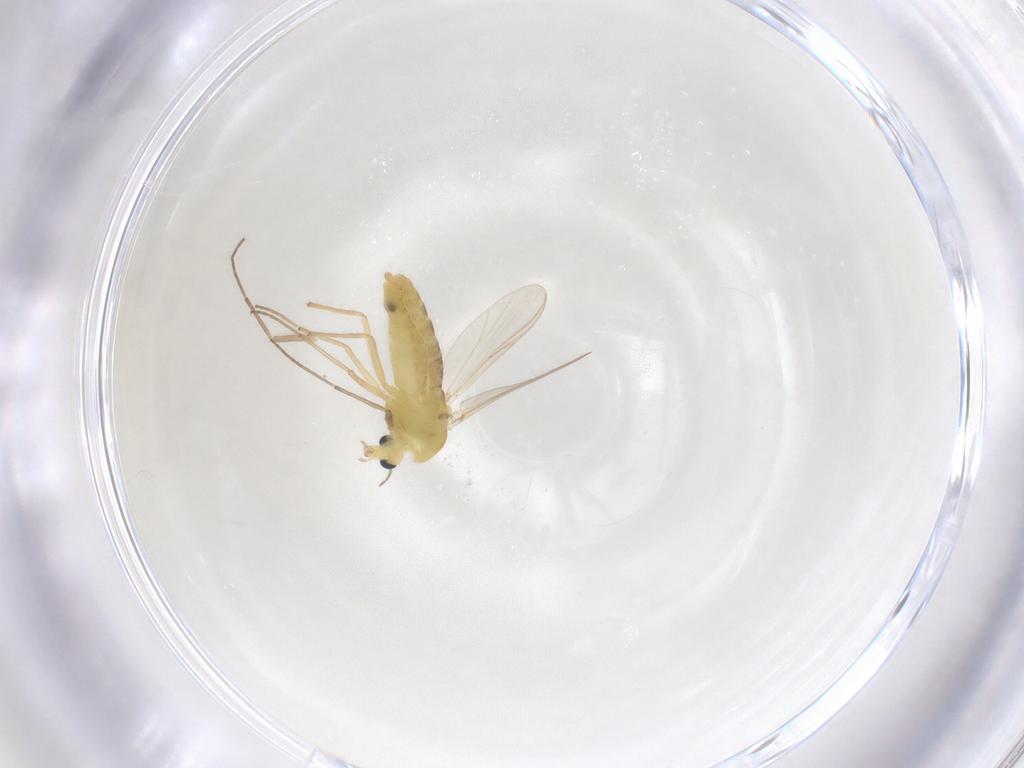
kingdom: Animalia
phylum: Arthropoda
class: Insecta
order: Diptera
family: Chironomidae
